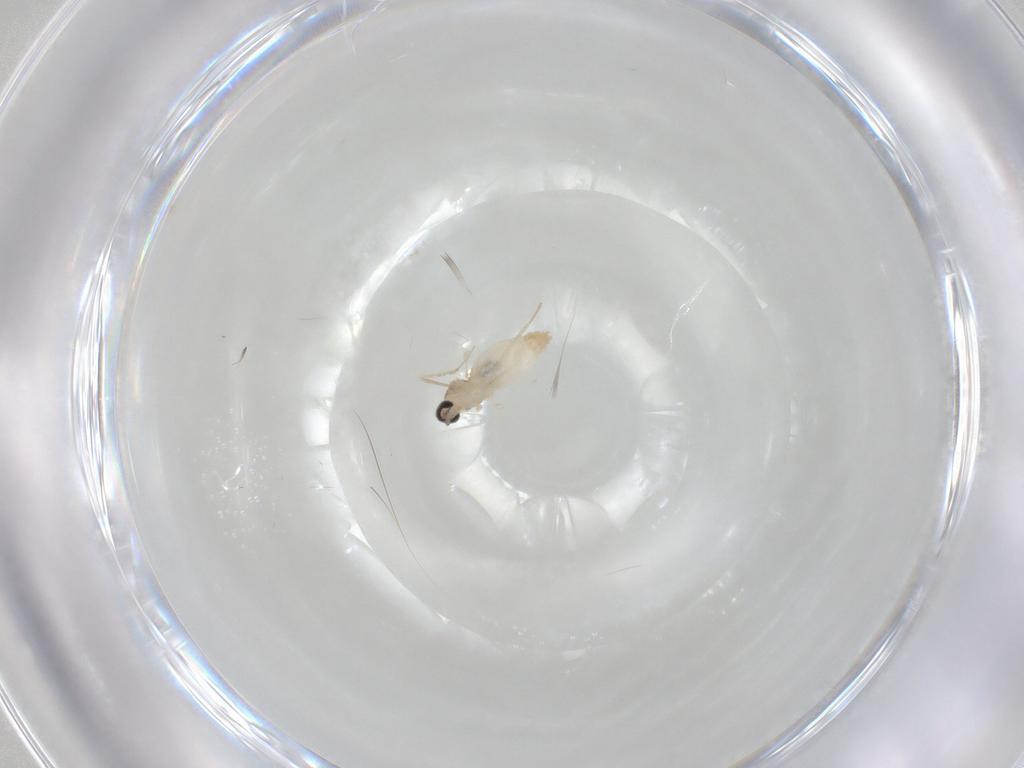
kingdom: Animalia
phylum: Arthropoda
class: Insecta
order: Diptera
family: Cecidomyiidae
